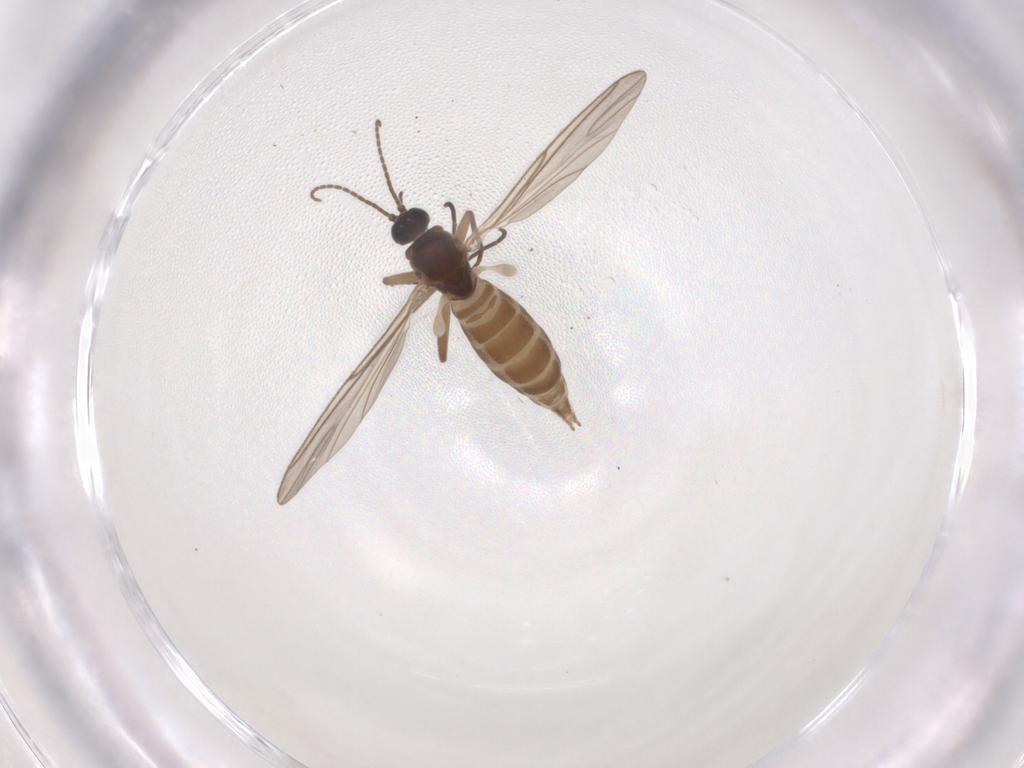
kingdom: Animalia
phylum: Arthropoda
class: Insecta
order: Diptera
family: Sciaridae
